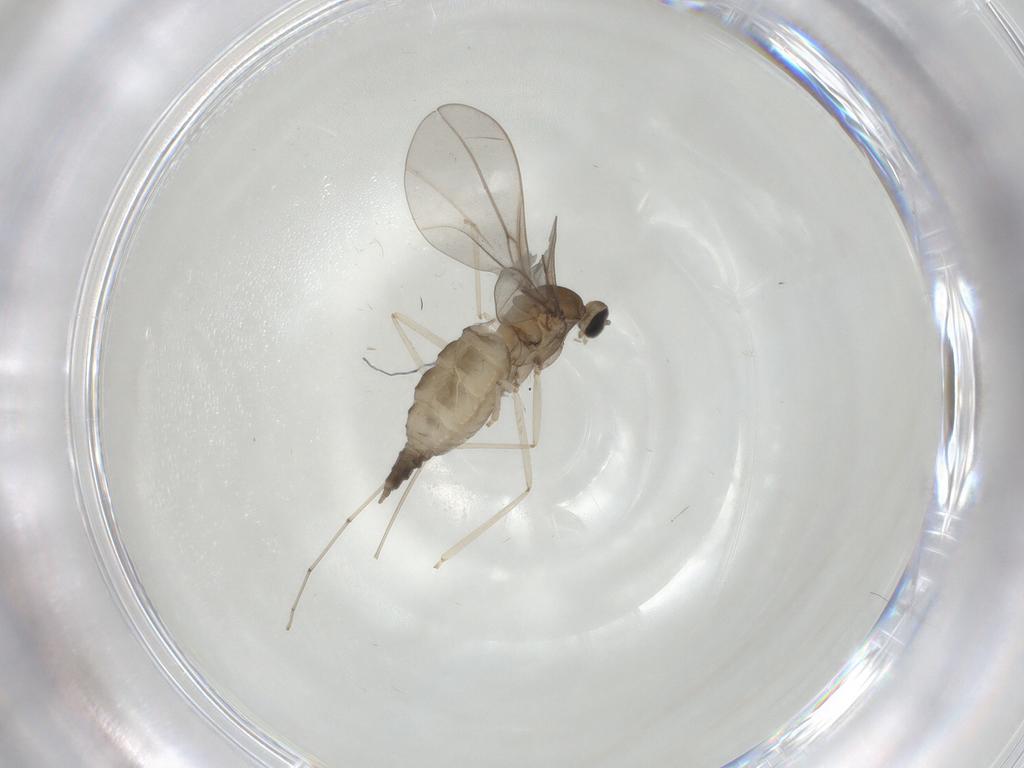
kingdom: Animalia
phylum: Arthropoda
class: Insecta
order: Diptera
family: Cecidomyiidae
